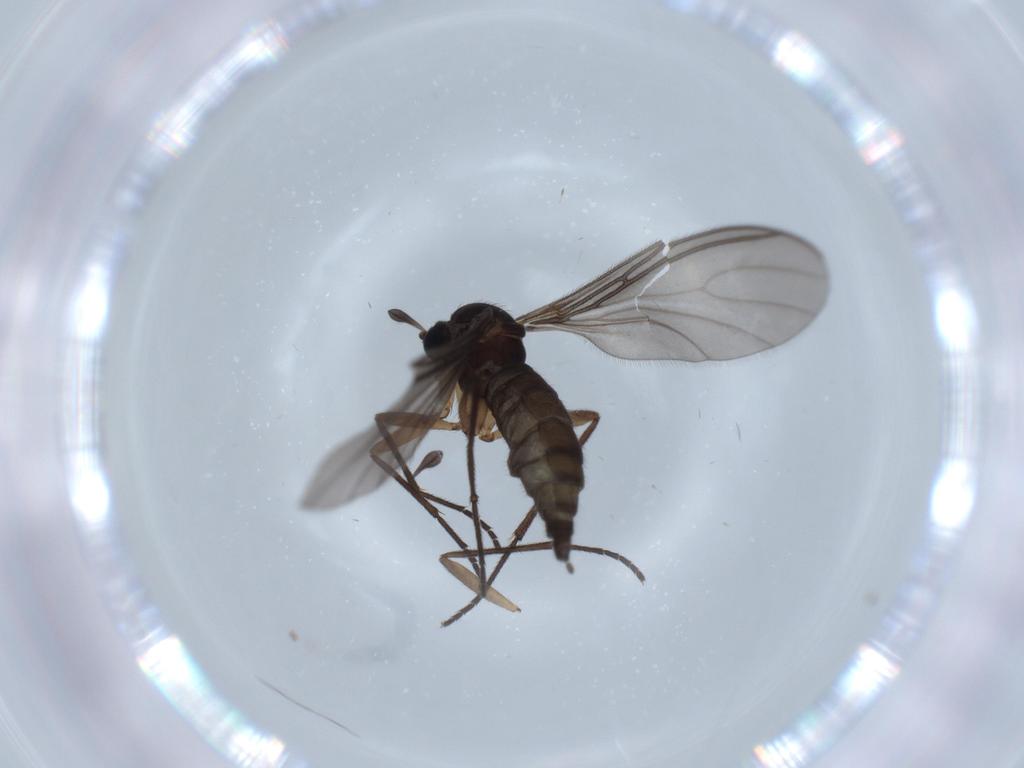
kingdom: Animalia
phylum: Arthropoda
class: Insecta
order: Diptera
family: Sciaridae
